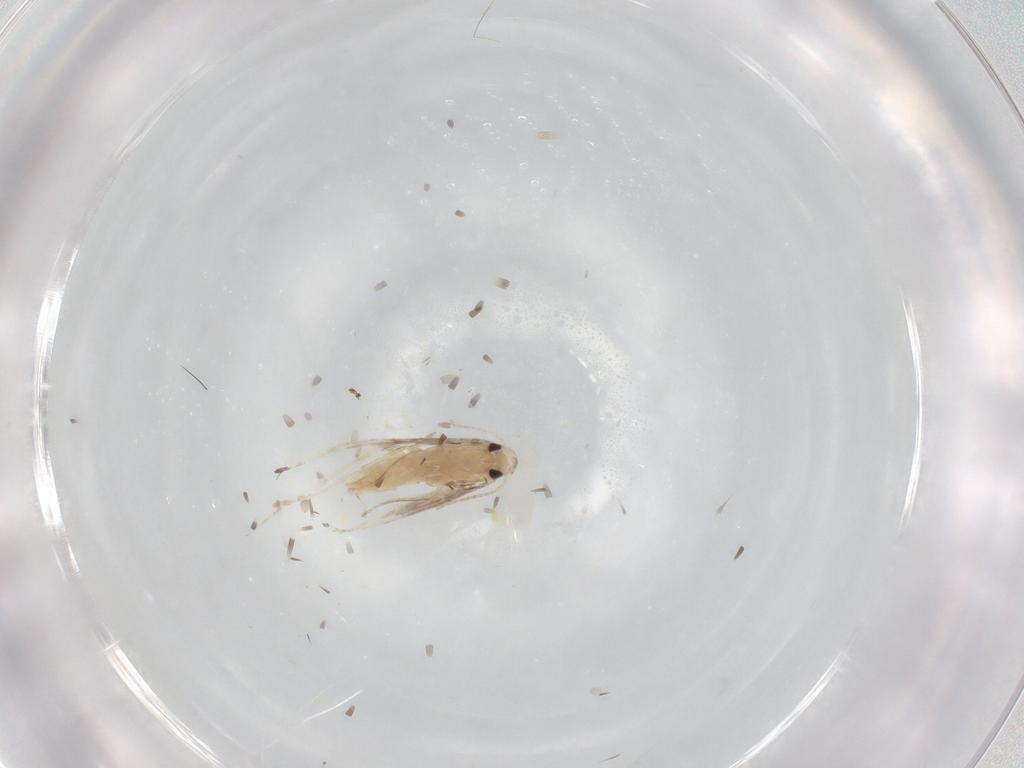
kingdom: Animalia
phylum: Arthropoda
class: Insecta
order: Lepidoptera
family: Gracillariidae
